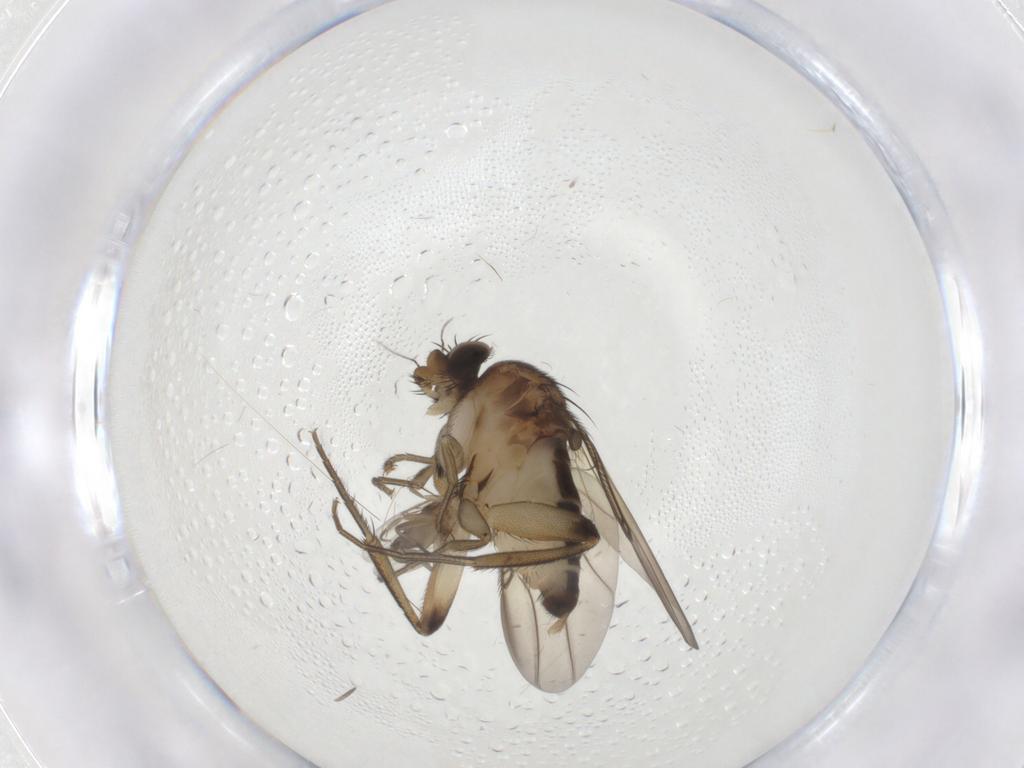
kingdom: Animalia
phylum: Arthropoda
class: Insecta
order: Diptera
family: Phoridae
